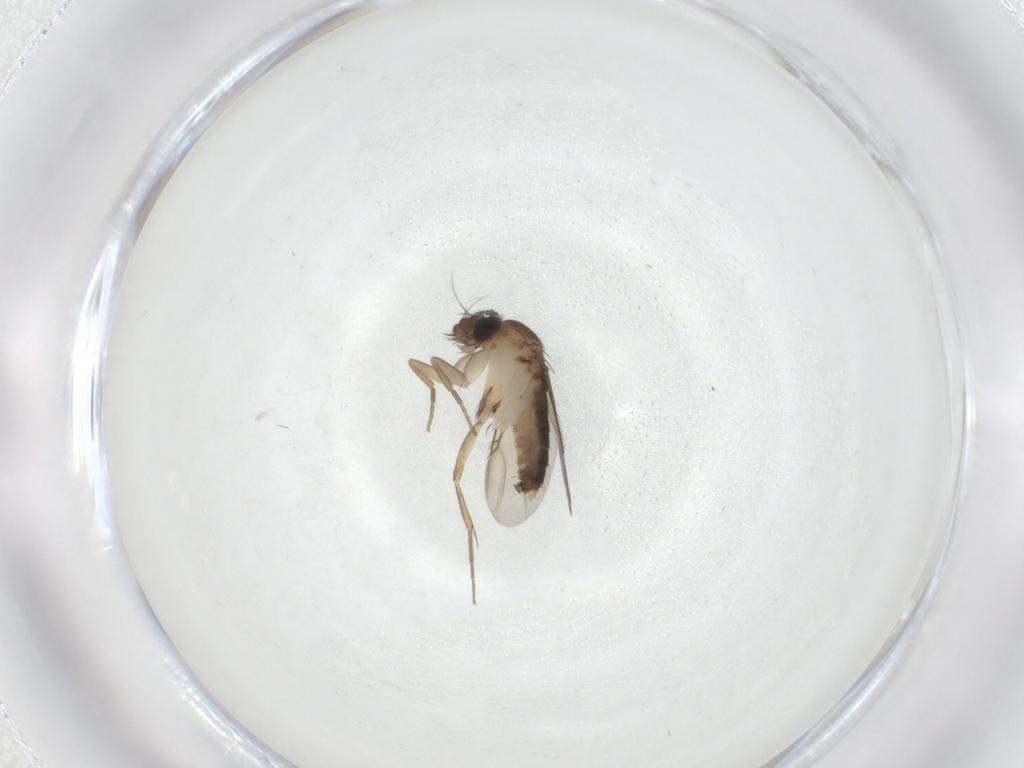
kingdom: Animalia
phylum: Arthropoda
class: Insecta
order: Diptera
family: Phoridae
